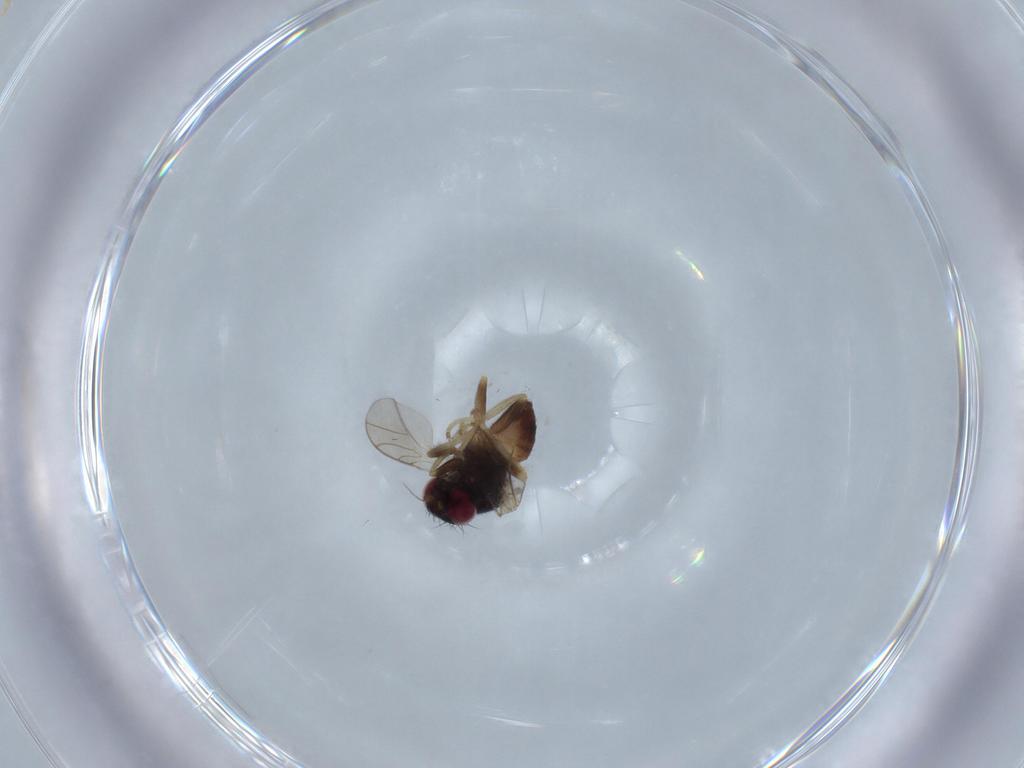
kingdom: Animalia
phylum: Arthropoda
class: Insecta
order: Diptera
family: Chloropidae
